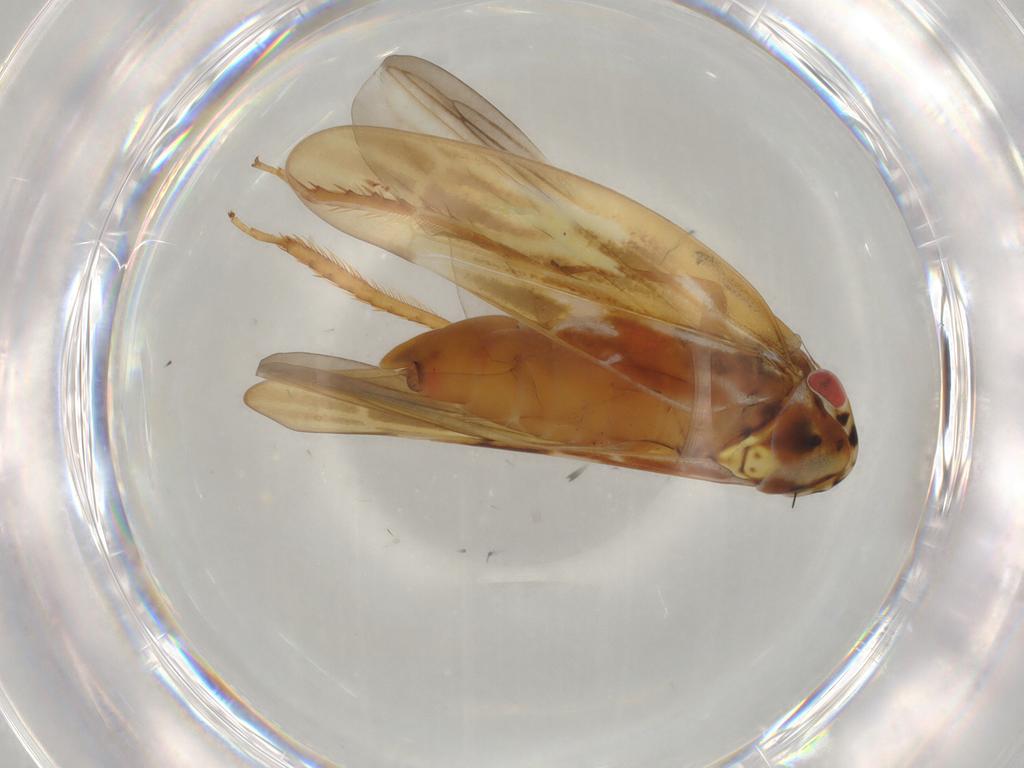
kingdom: Animalia
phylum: Arthropoda
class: Insecta
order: Hemiptera
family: Cicadellidae
